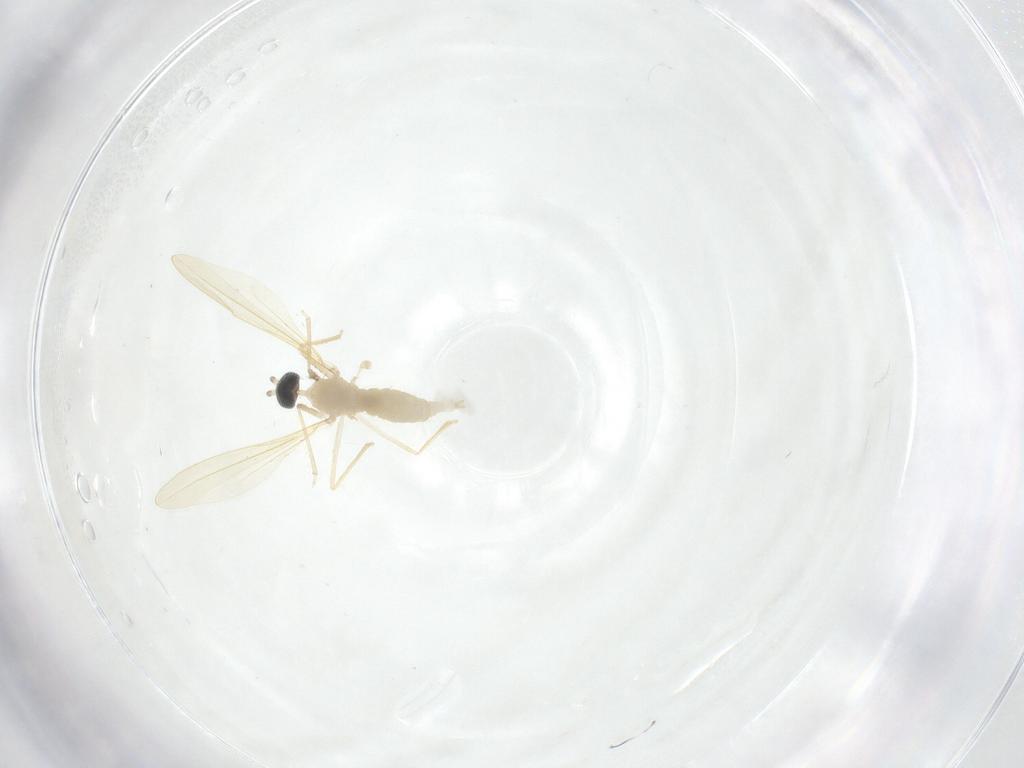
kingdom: Animalia
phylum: Arthropoda
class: Insecta
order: Diptera
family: Cecidomyiidae
